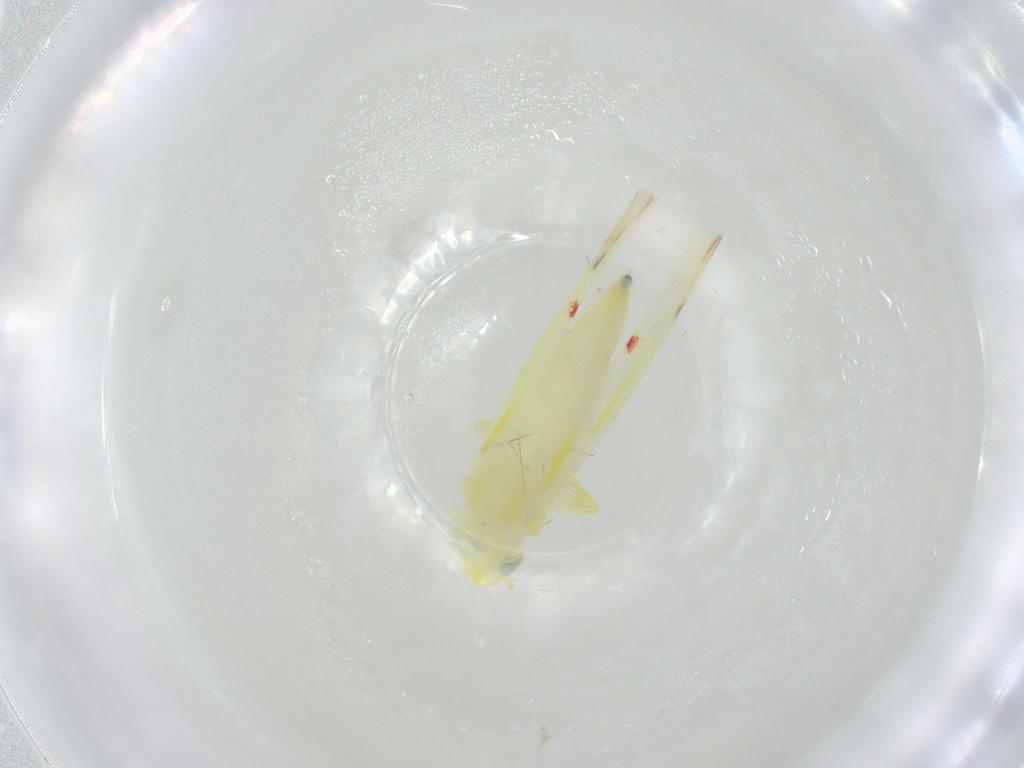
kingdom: Animalia
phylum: Arthropoda
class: Insecta
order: Hemiptera
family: Cicadellidae
